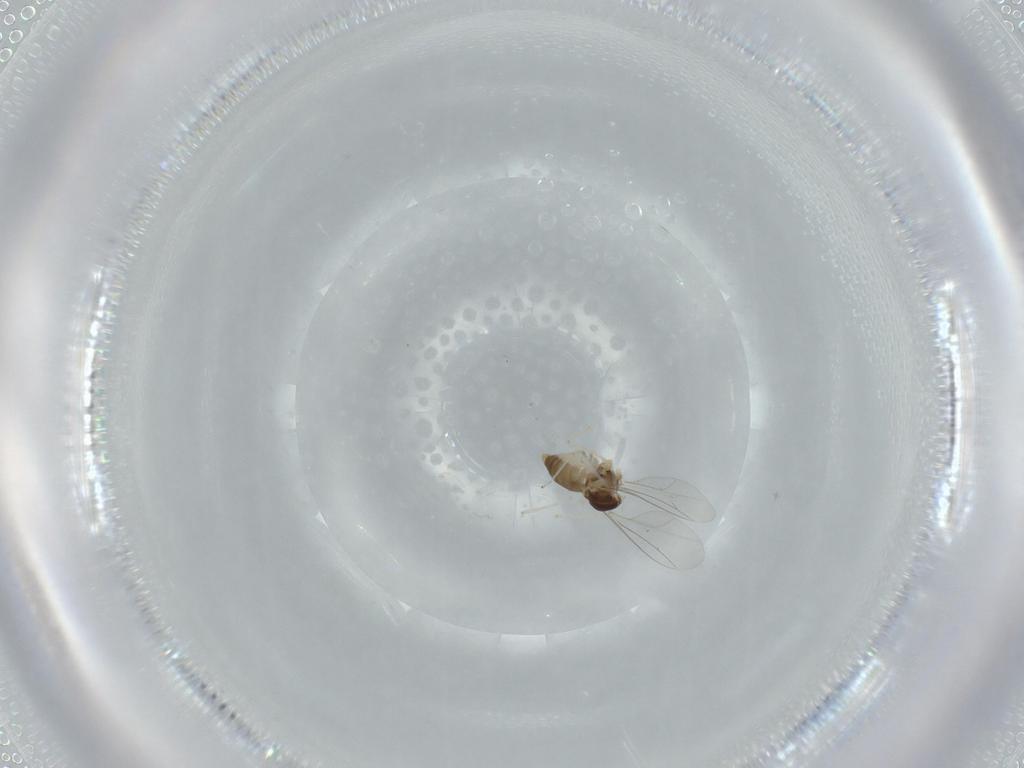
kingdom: Animalia
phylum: Arthropoda
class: Insecta
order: Diptera
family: Cecidomyiidae
